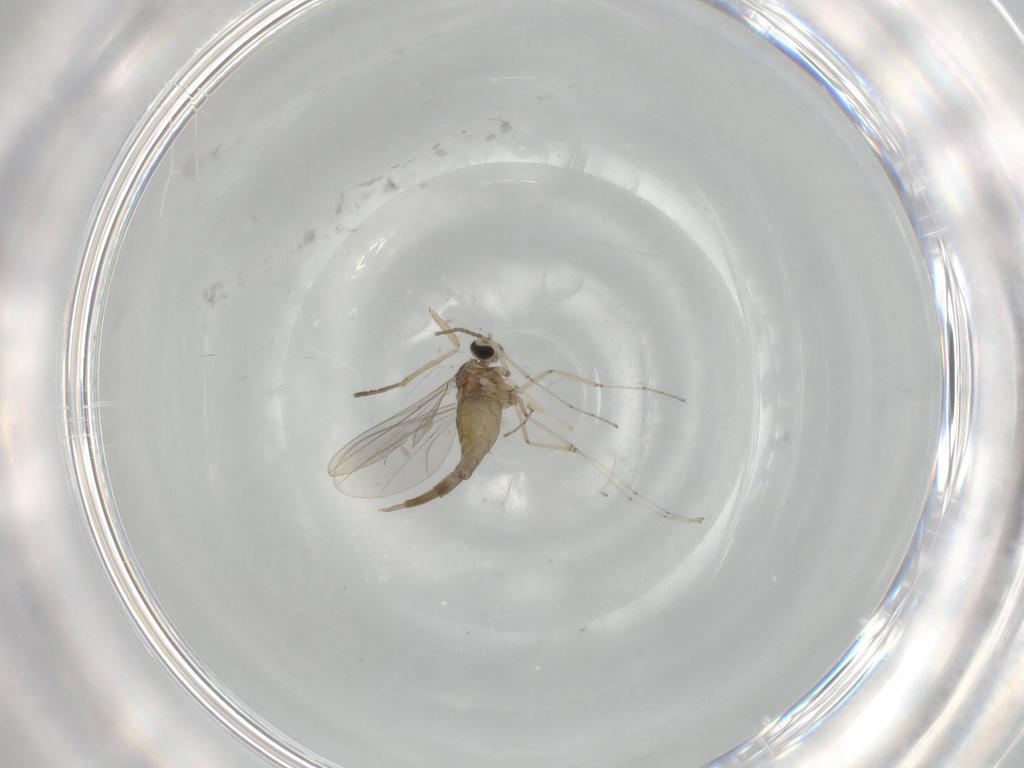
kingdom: Animalia
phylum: Arthropoda
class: Insecta
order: Diptera
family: Cecidomyiidae
